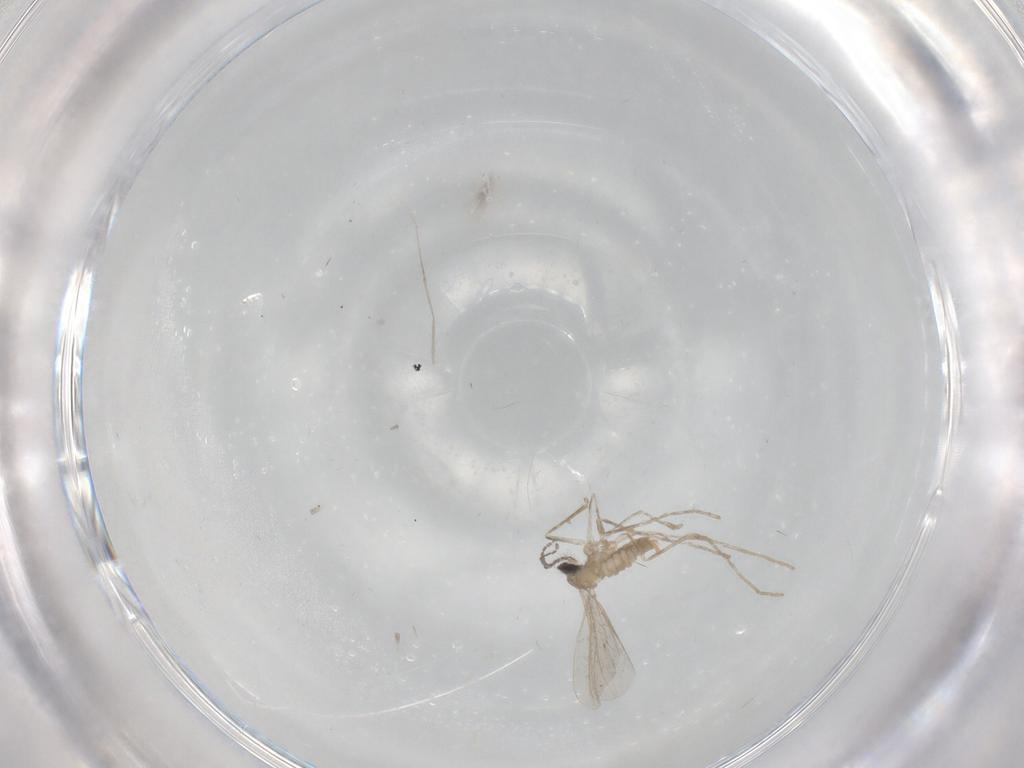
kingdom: Animalia
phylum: Arthropoda
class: Insecta
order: Diptera
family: Cecidomyiidae
